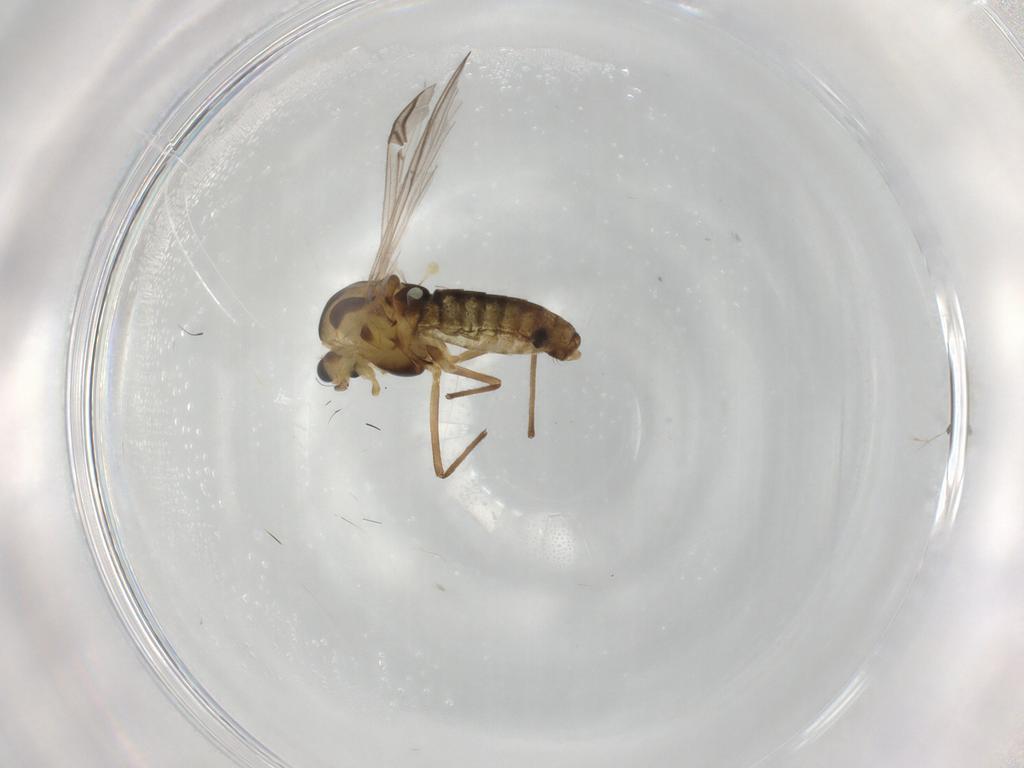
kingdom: Animalia
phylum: Arthropoda
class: Insecta
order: Diptera
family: Chironomidae
